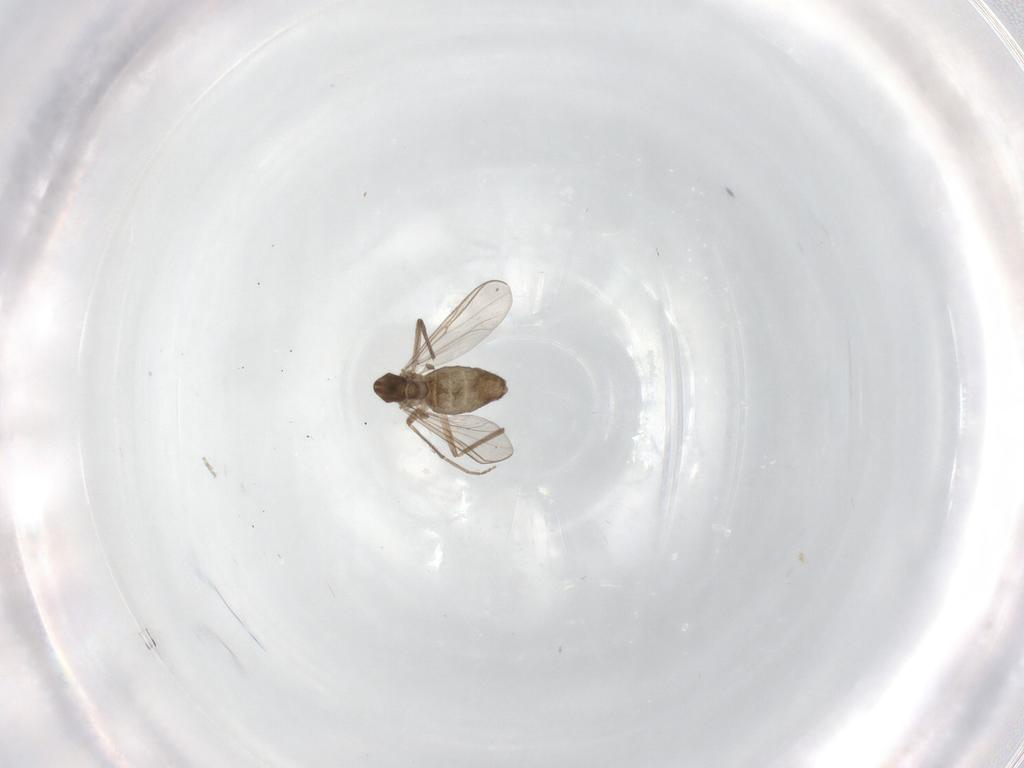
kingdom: Animalia
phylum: Arthropoda
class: Insecta
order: Diptera
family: Chironomidae
